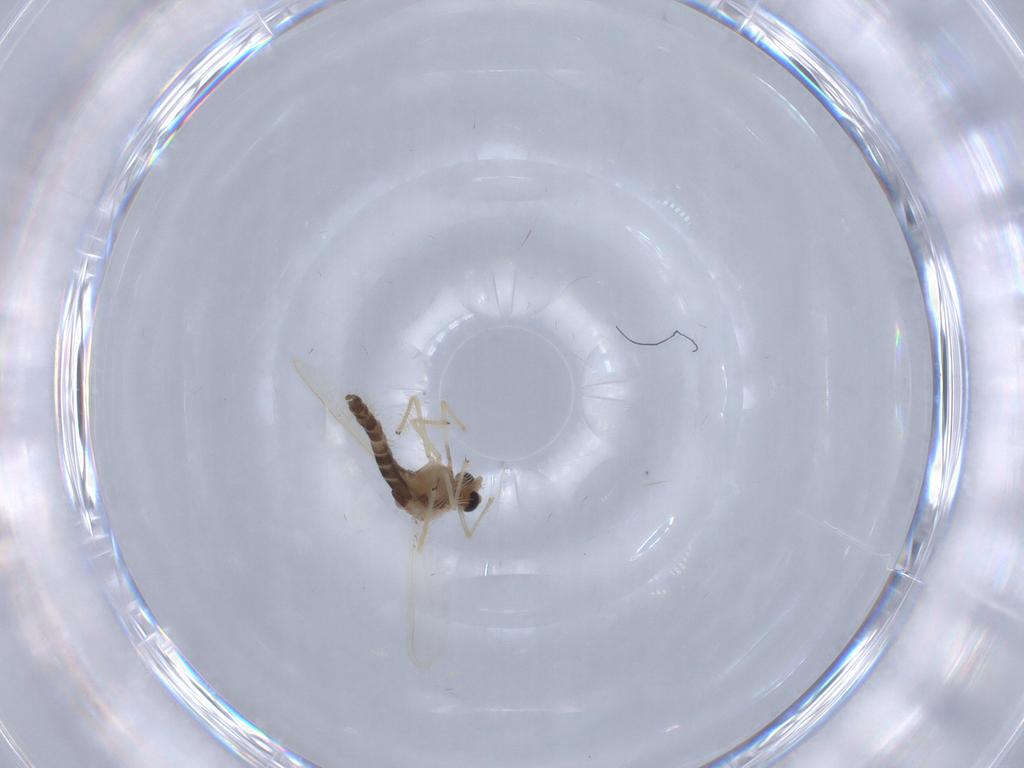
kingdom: Animalia
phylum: Arthropoda
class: Insecta
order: Diptera
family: Chironomidae
